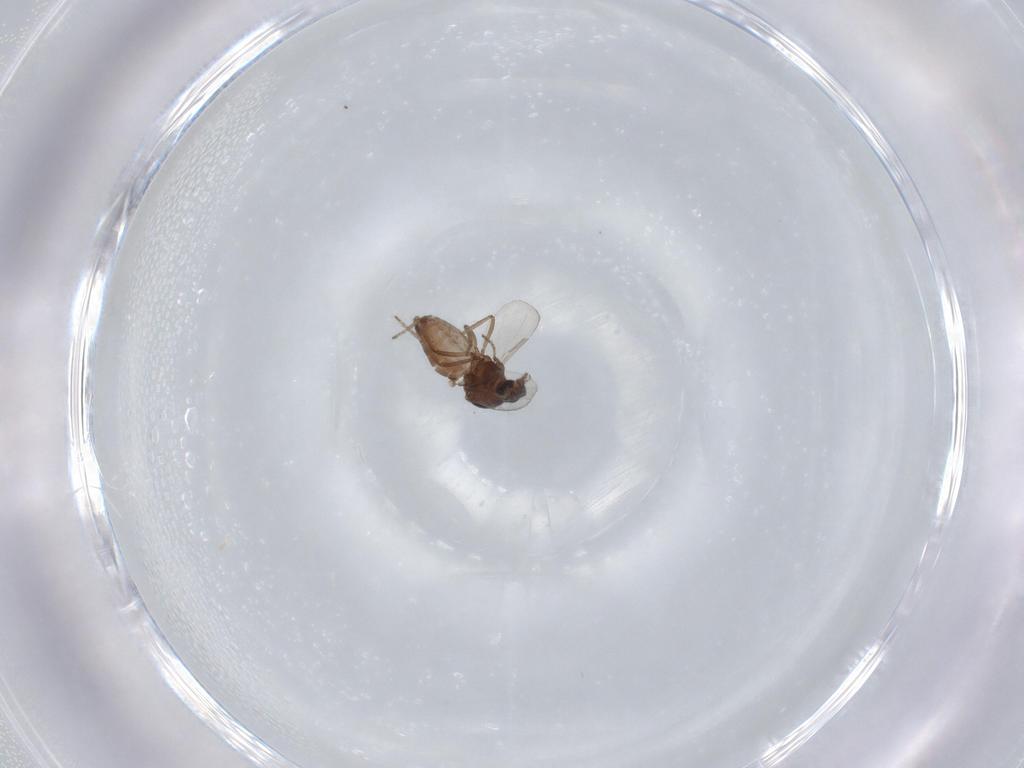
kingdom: Animalia
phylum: Arthropoda
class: Insecta
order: Diptera
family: Ceratopogonidae
